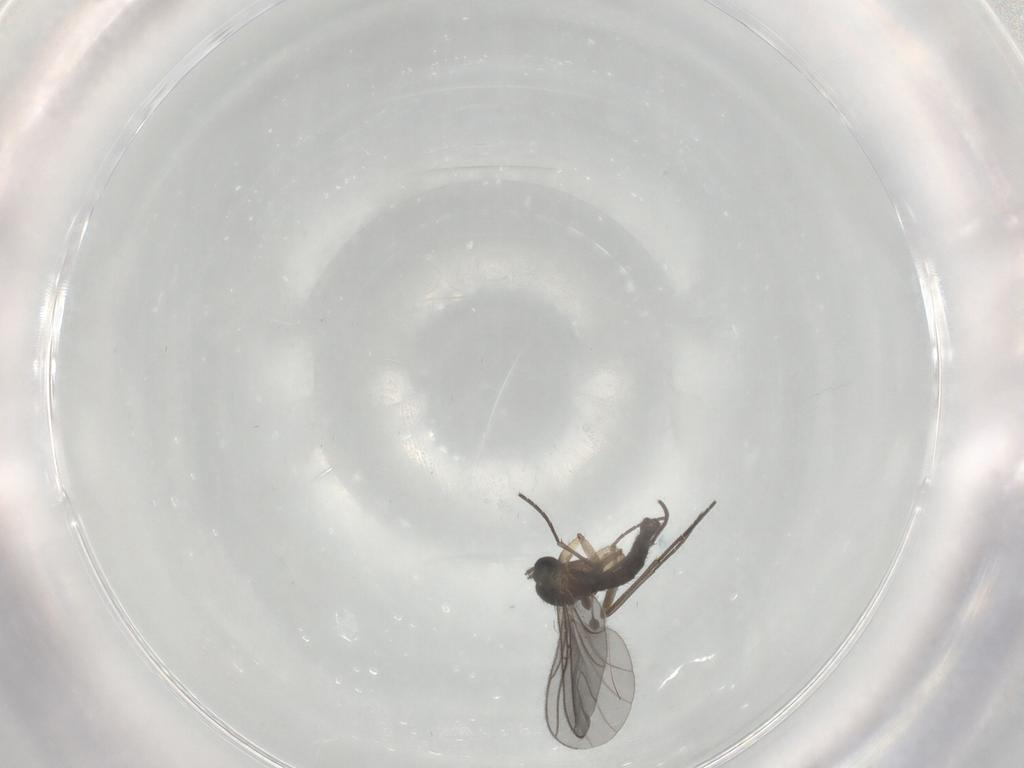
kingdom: Animalia
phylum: Arthropoda
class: Insecta
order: Diptera
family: Sciaridae
